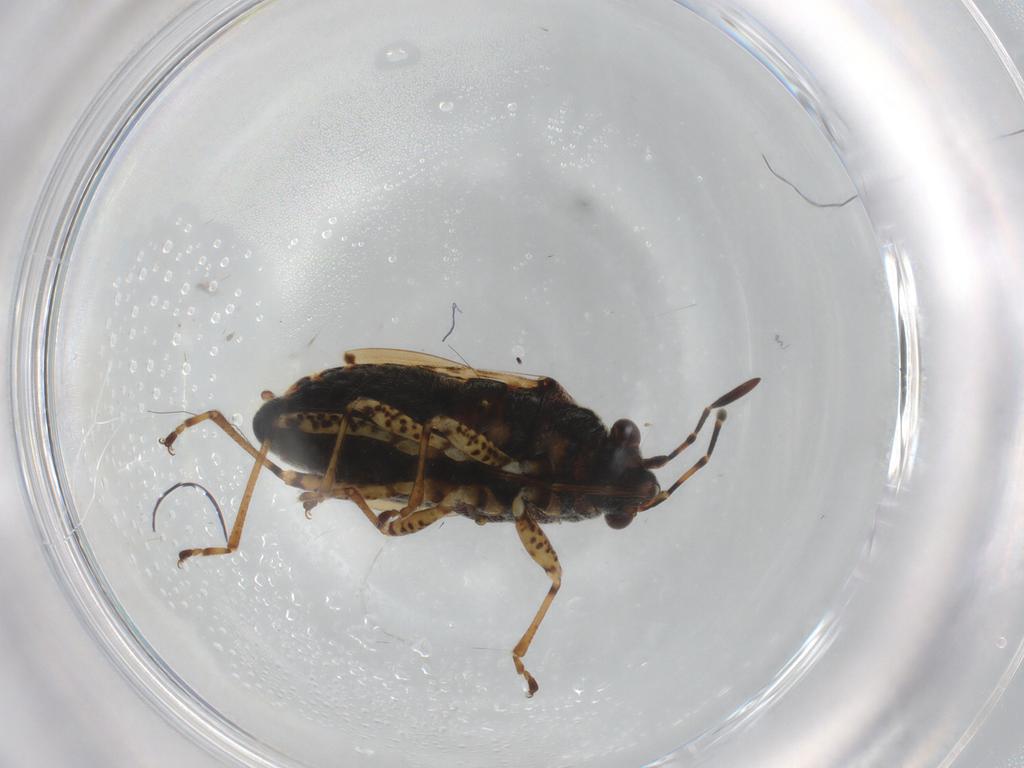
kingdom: Animalia
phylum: Arthropoda
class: Insecta
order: Hemiptera
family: Lygaeidae
